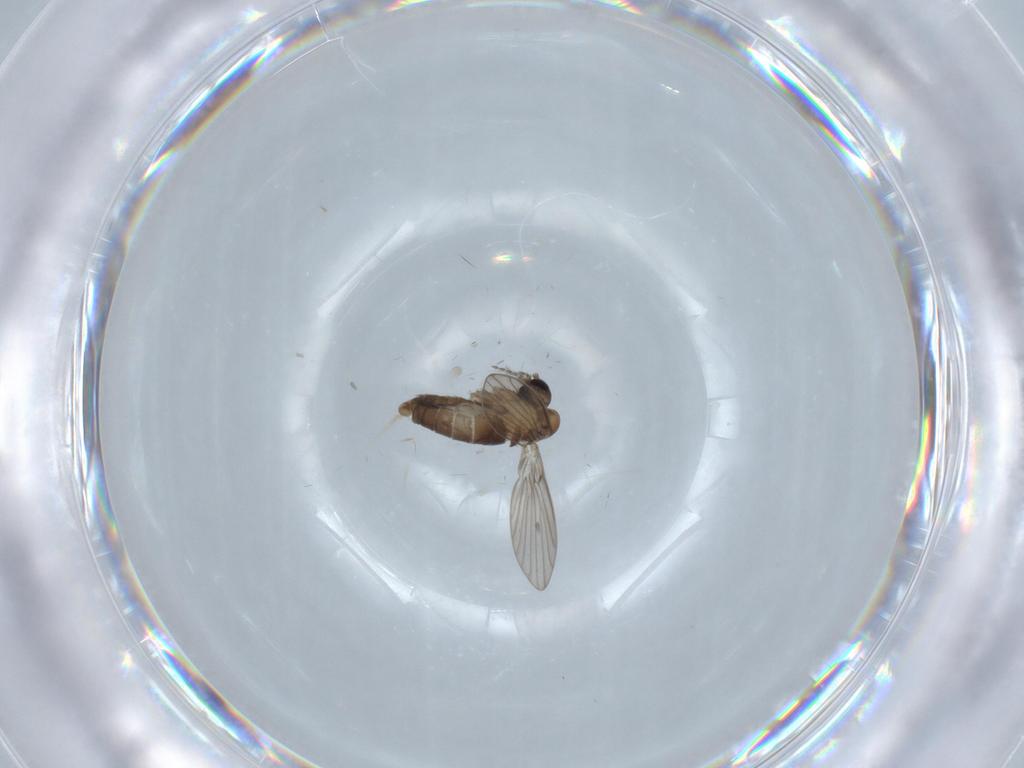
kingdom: Animalia
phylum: Arthropoda
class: Insecta
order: Diptera
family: Psychodidae
